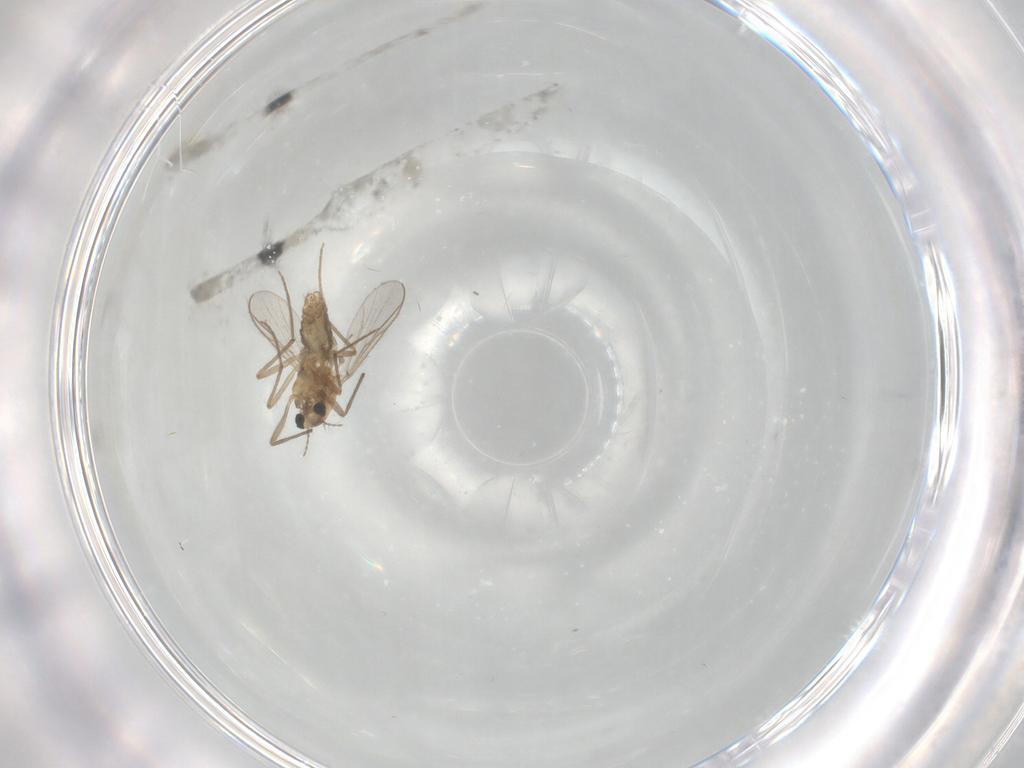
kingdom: Animalia
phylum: Arthropoda
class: Insecta
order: Diptera
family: Chironomidae
